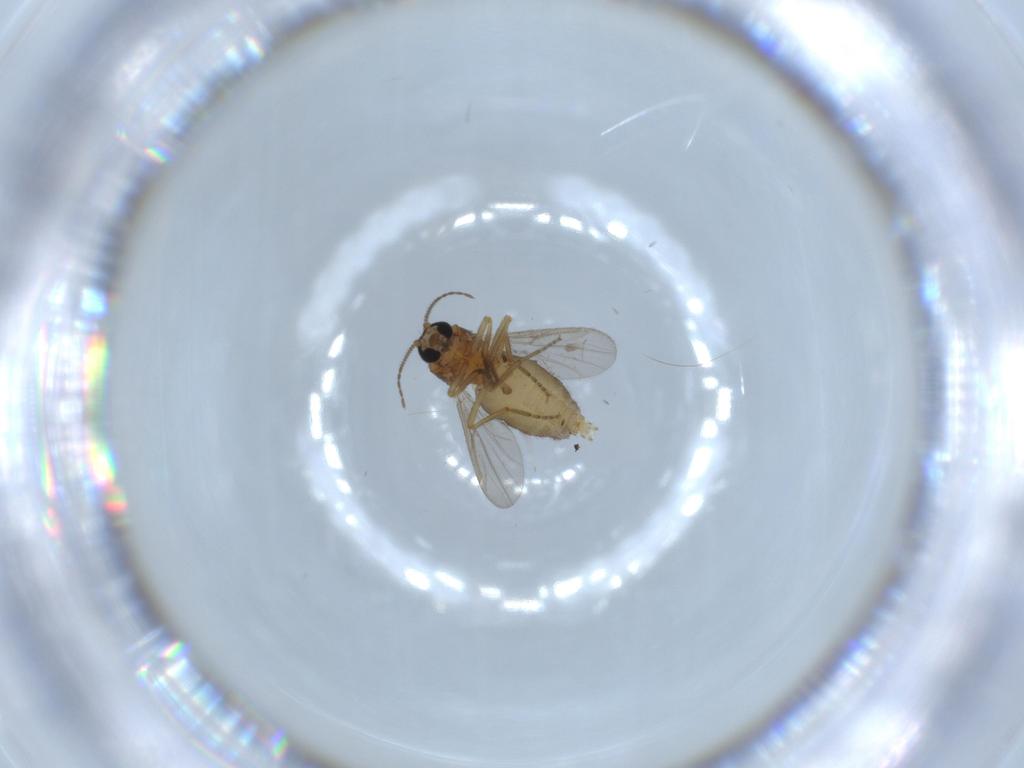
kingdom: Animalia
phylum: Arthropoda
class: Insecta
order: Diptera
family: Ceratopogonidae
